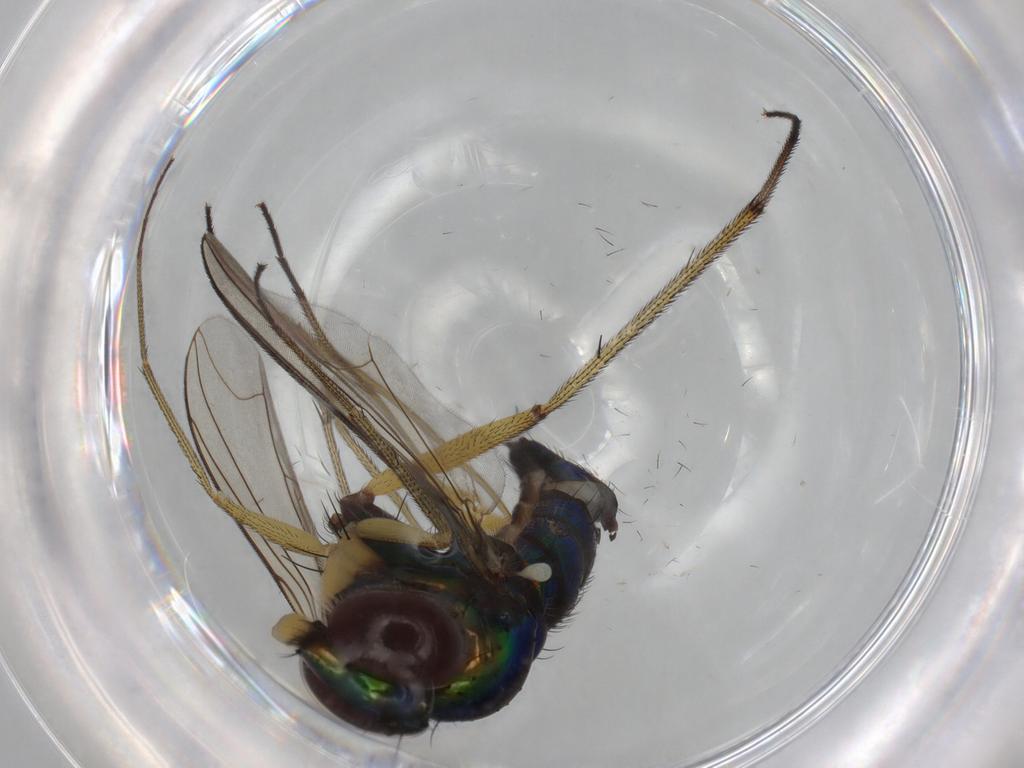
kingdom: Animalia
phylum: Arthropoda
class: Insecta
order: Diptera
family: Dolichopodidae
